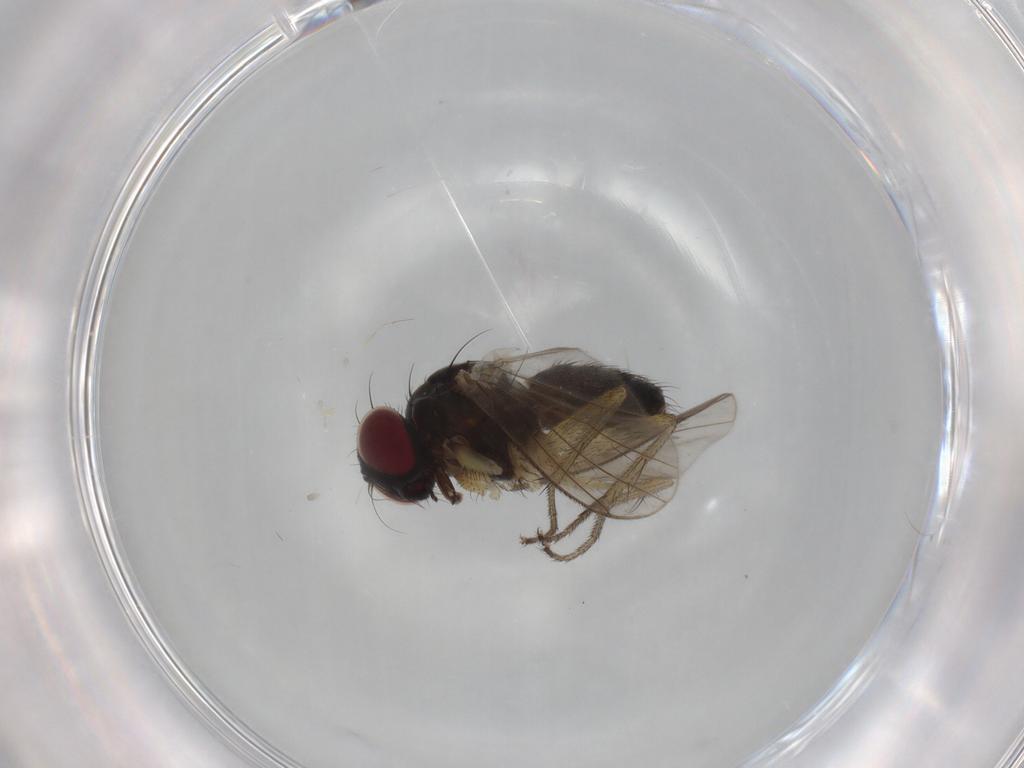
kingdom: Animalia
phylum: Arthropoda
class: Insecta
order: Diptera
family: Muscidae
